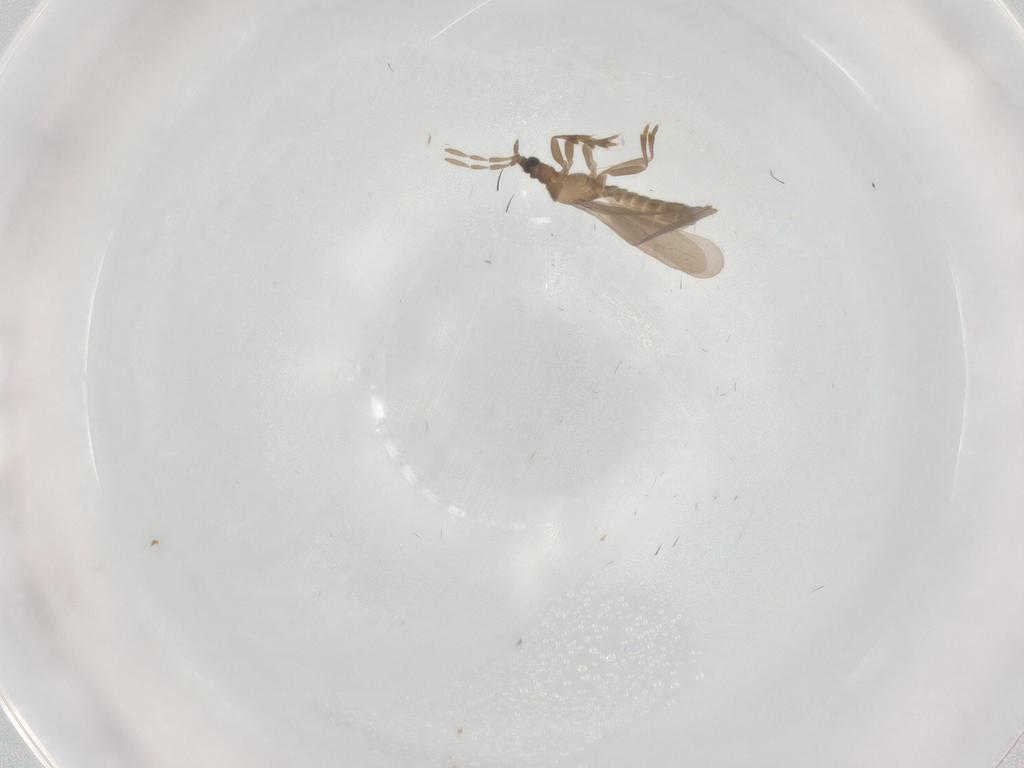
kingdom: Animalia
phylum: Arthropoda
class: Insecta
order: Hemiptera
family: Enicocephalidae
